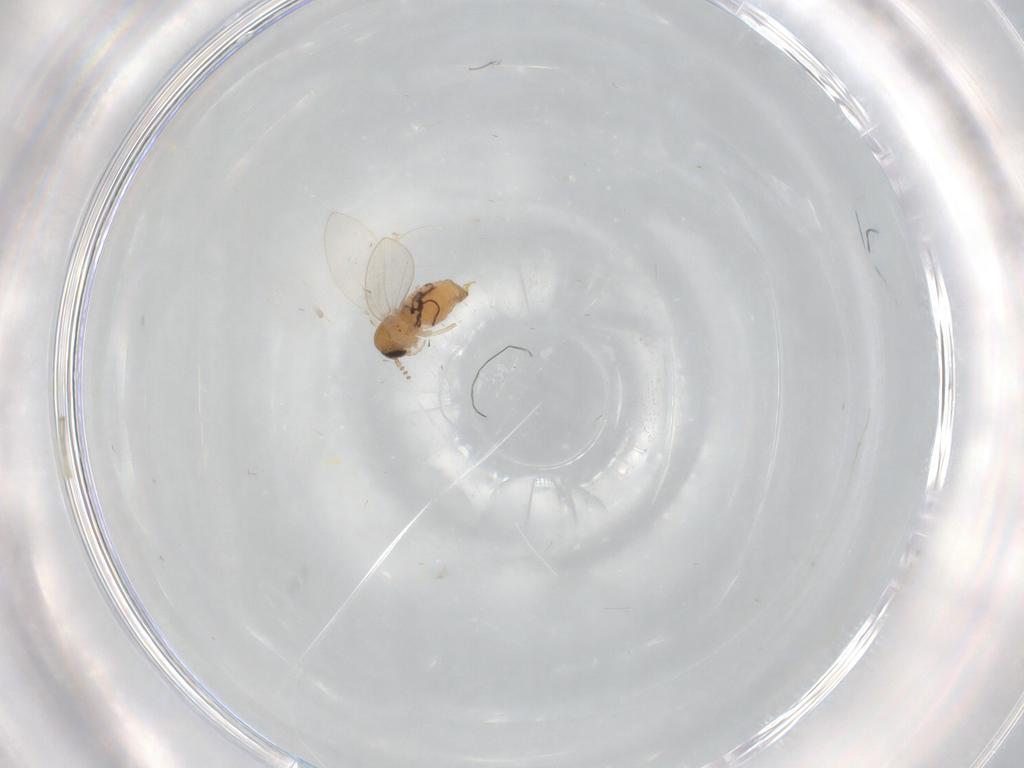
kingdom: Animalia
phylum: Arthropoda
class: Insecta
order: Diptera
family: Psychodidae
